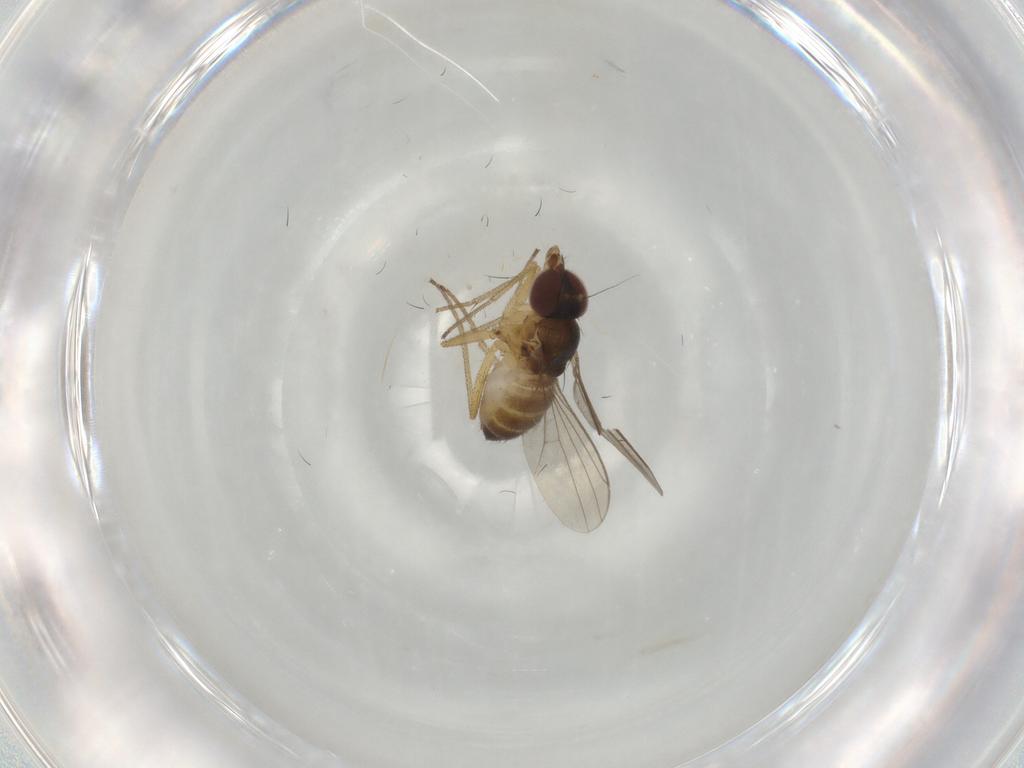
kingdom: Animalia
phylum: Arthropoda
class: Insecta
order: Diptera
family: Dolichopodidae
